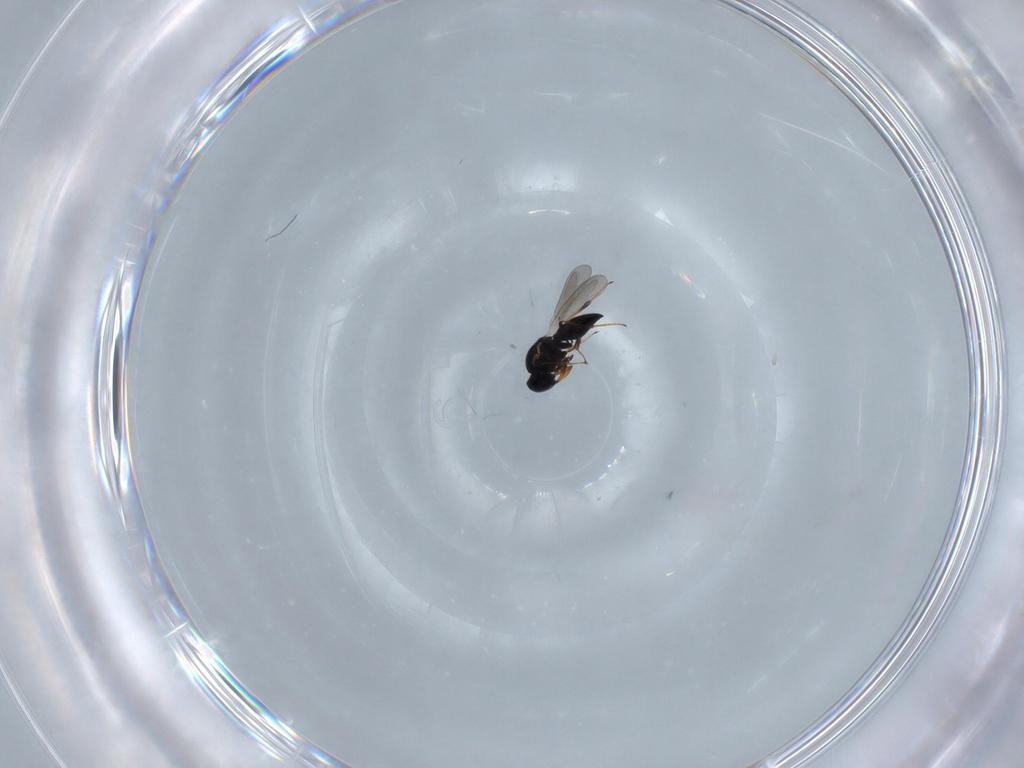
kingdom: Animalia
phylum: Arthropoda
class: Insecta
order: Hymenoptera
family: Platygastridae
